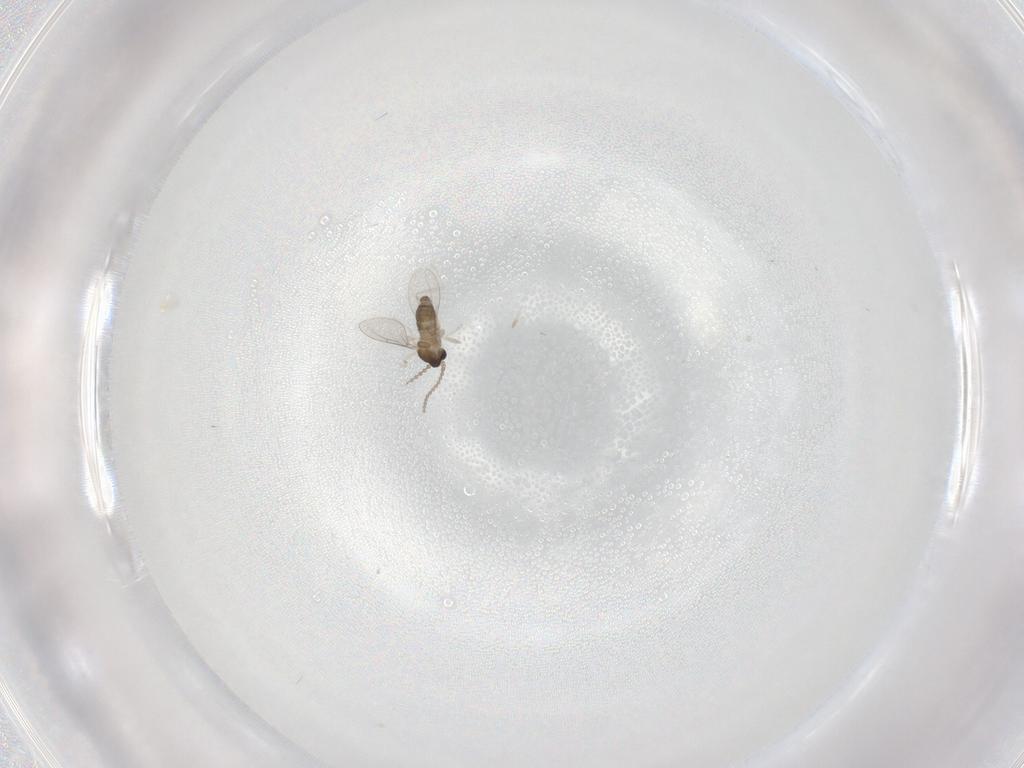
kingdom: Animalia
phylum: Arthropoda
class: Insecta
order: Diptera
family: Cecidomyiidae
